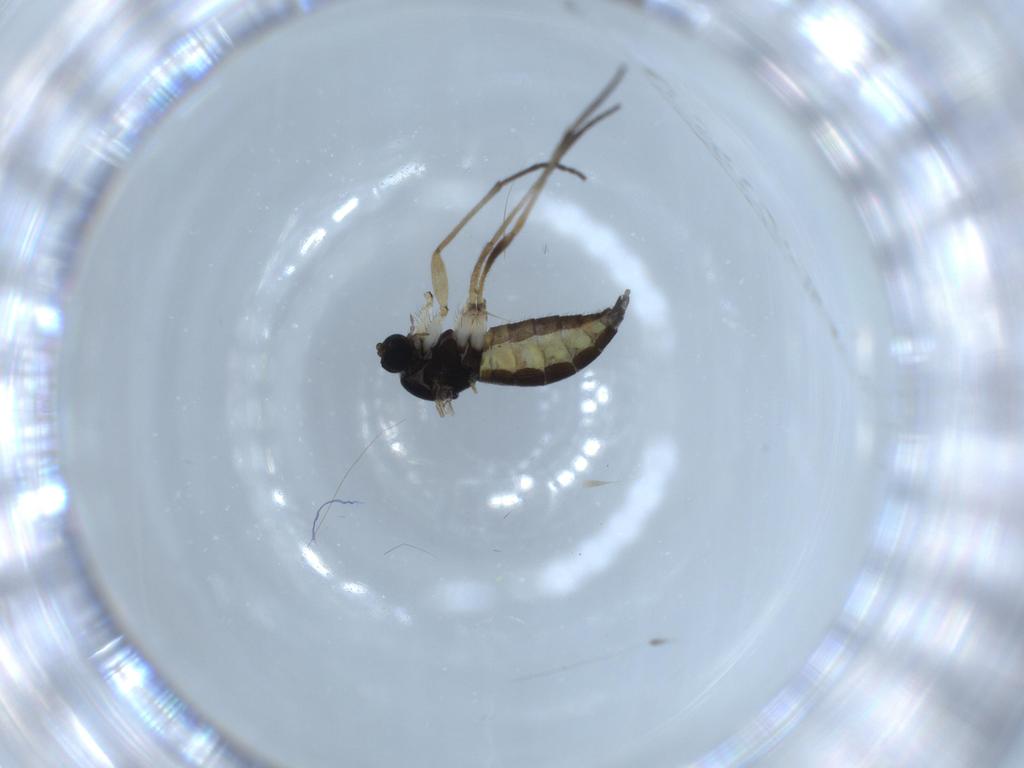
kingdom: Animalia
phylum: Arthropoda
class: Insecta
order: Diptera
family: Sciaridae
